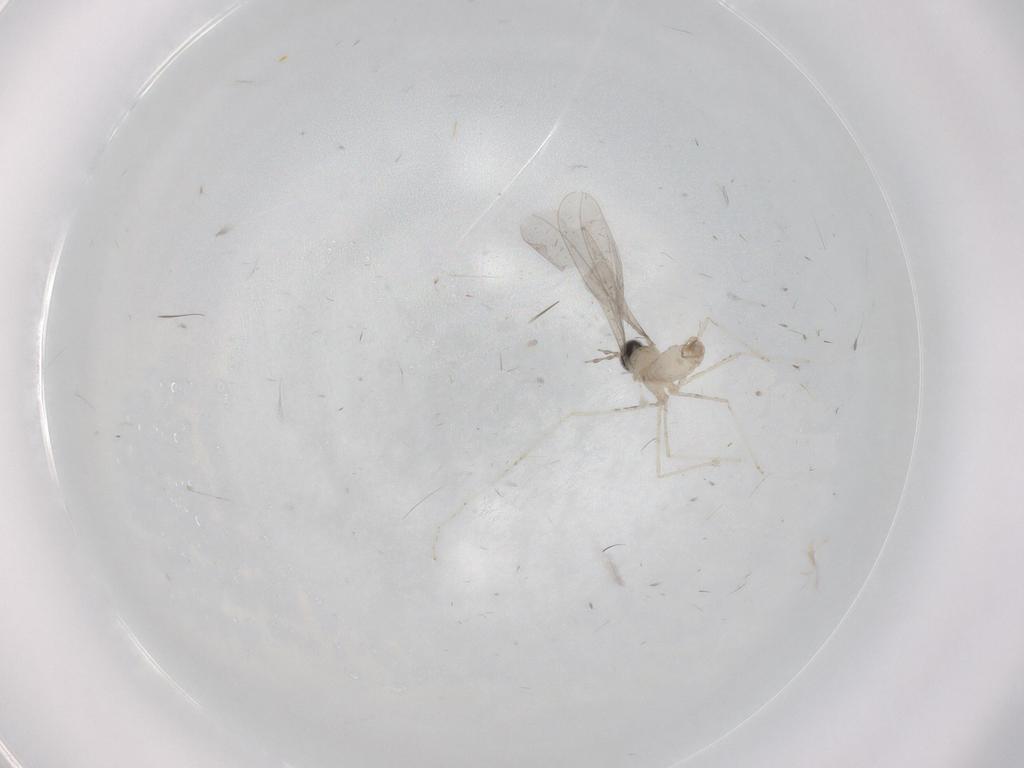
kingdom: Animalia
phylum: Arthropoda
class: Insecta
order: Diptera
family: Cecidomyiidae
